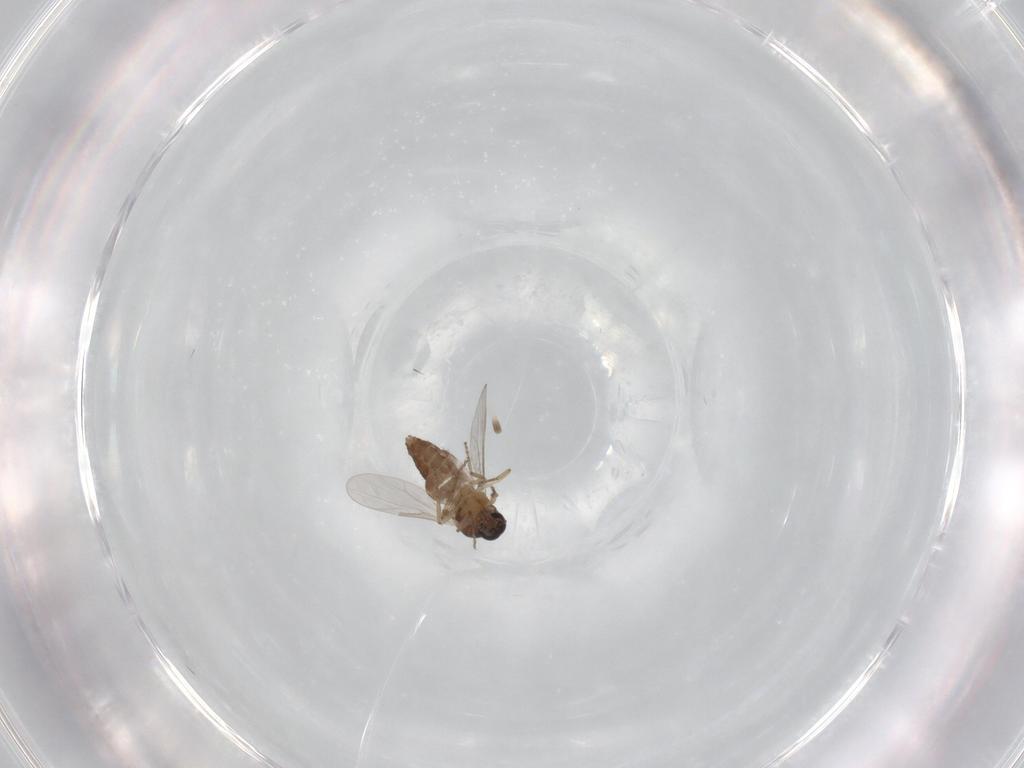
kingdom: Animalia
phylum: Arthropoda
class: Insecta
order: Diptera
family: Ceratopogonidae
